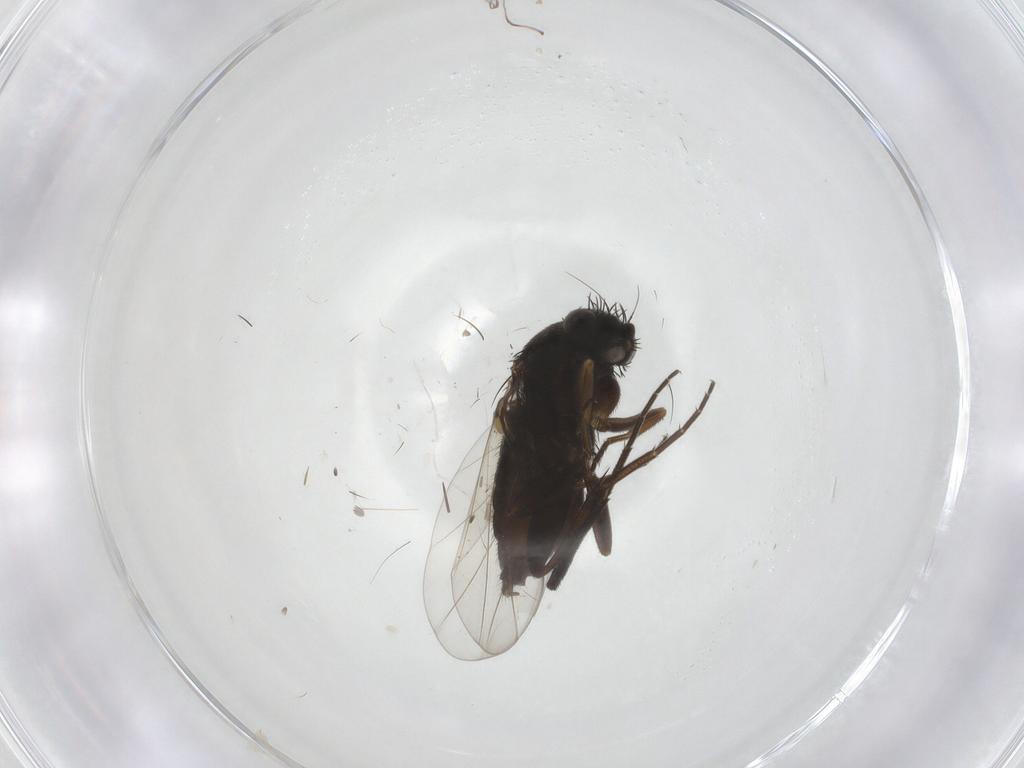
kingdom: Animalia
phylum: Arthropoda
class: Insecta
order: Diptera
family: Phoridae
